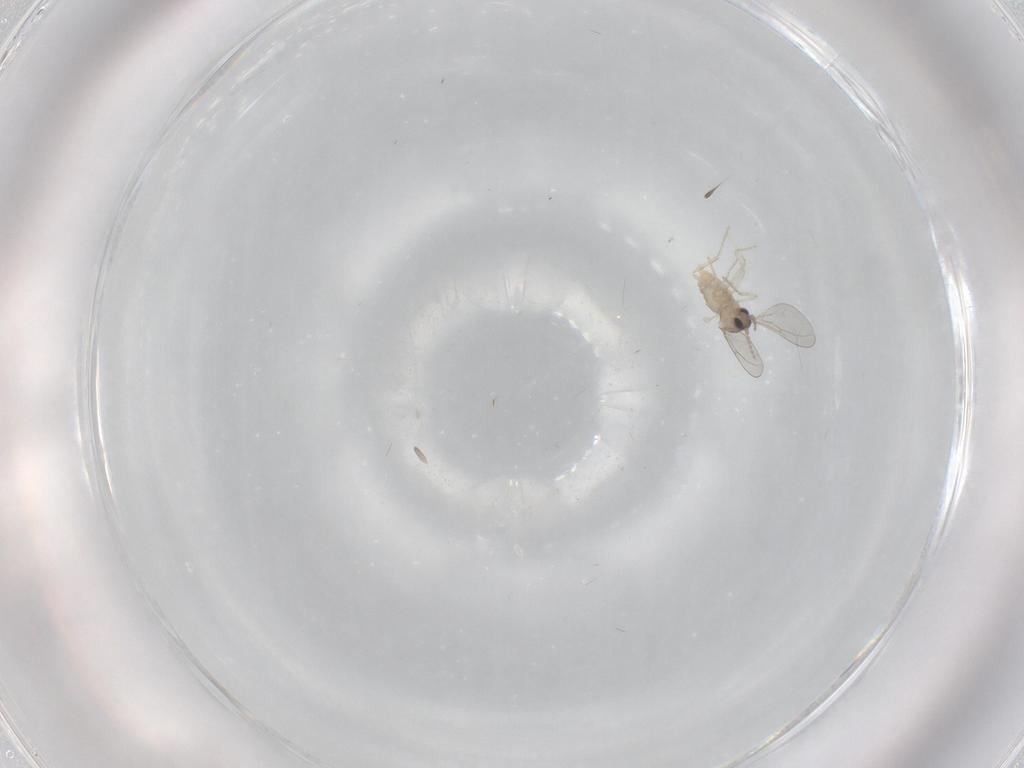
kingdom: Animalia
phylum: Arthropoda
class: Insecta
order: Diptera
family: Cecidomyiidae
